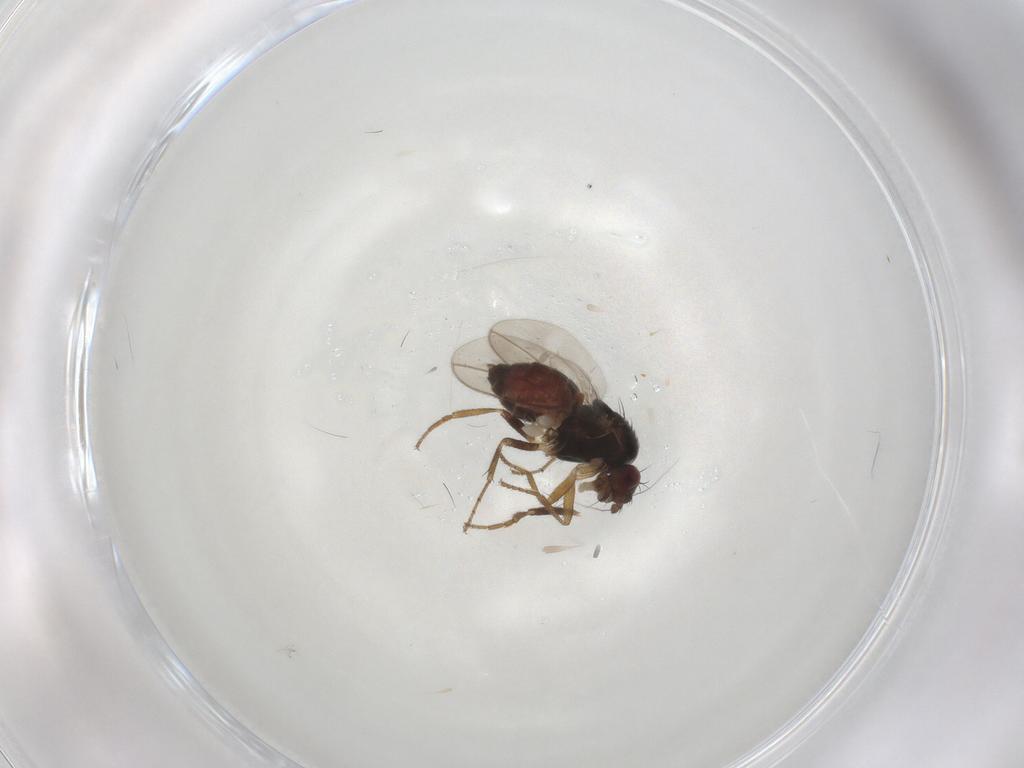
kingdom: Animalia
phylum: Arthropoda
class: Insecta
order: Diptera
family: Sphaeroceridae
